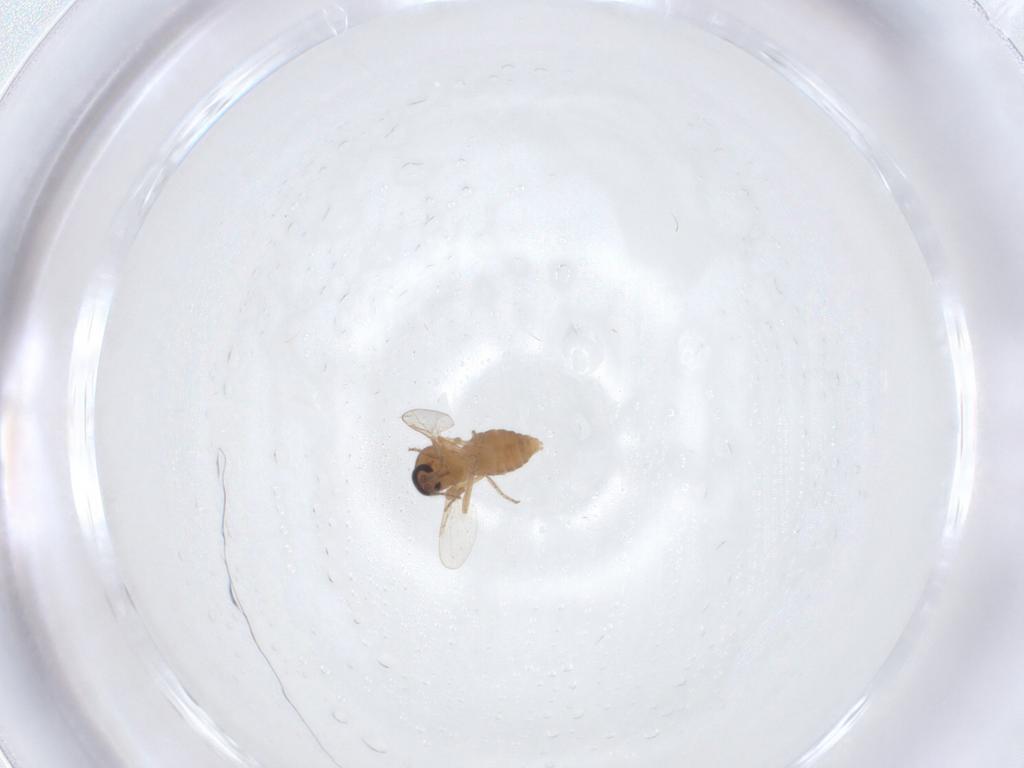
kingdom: Animalia
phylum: Arthropoda
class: Insecta
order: Diptera
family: Ceratopogonidae
